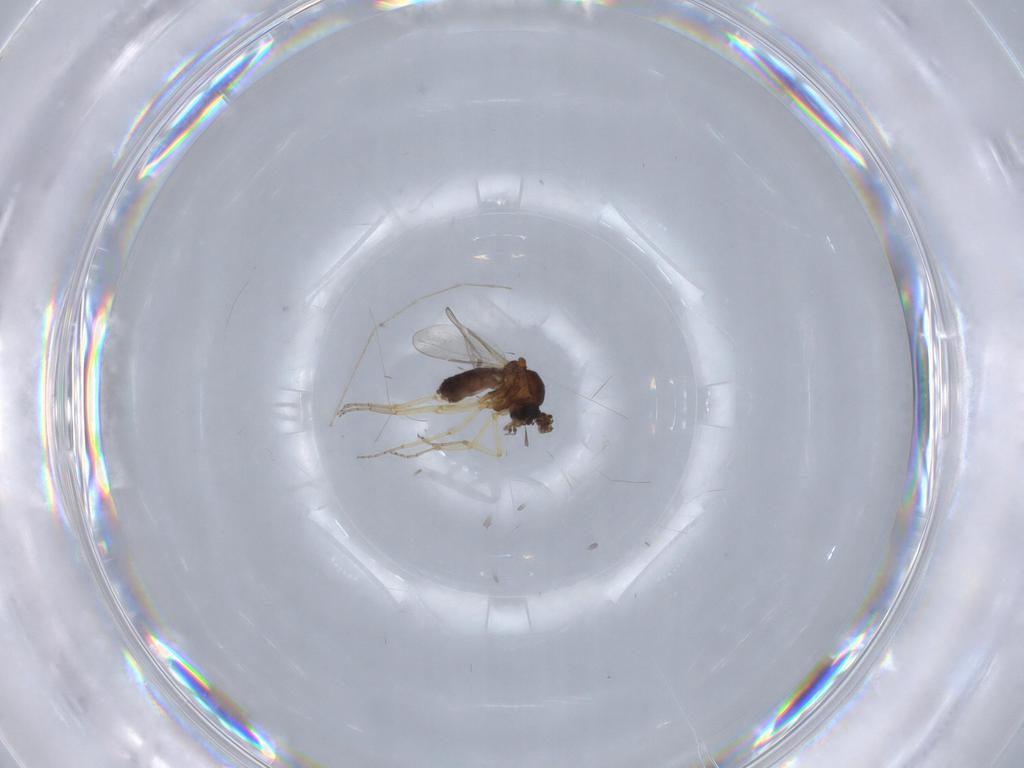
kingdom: Animalia
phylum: Arthropoda
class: Insecta
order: Diptera
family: Ceratopogonidae
